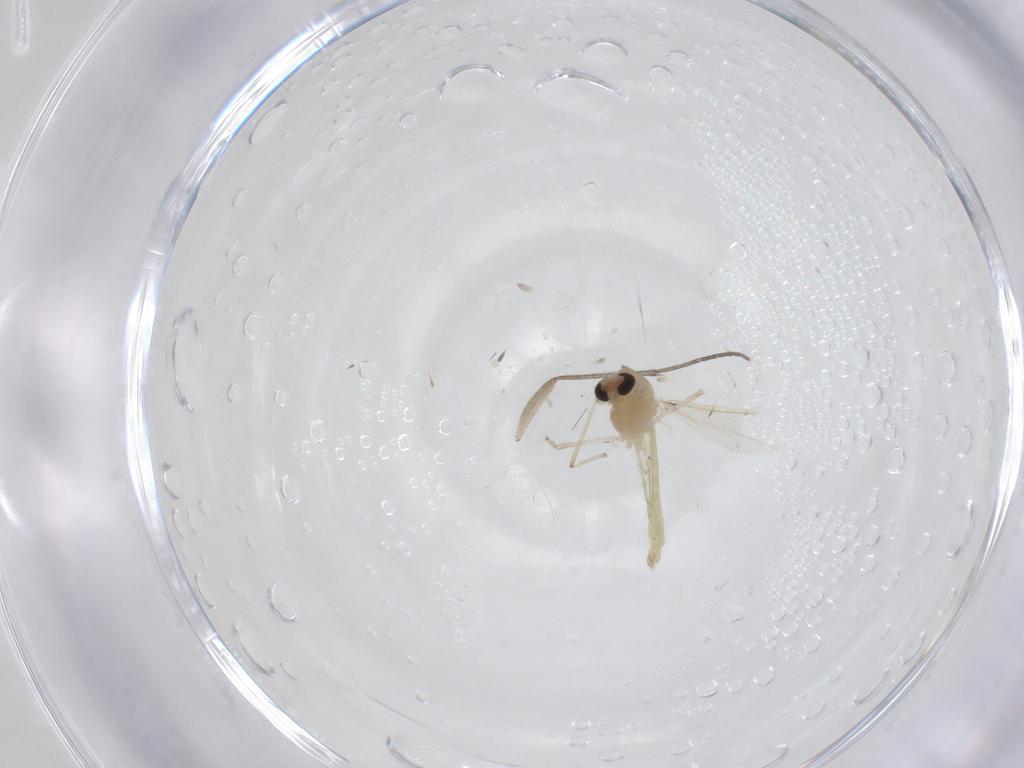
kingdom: Animalia
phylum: Arthropoda
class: Insecta
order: Diptera
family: Chironomidae
